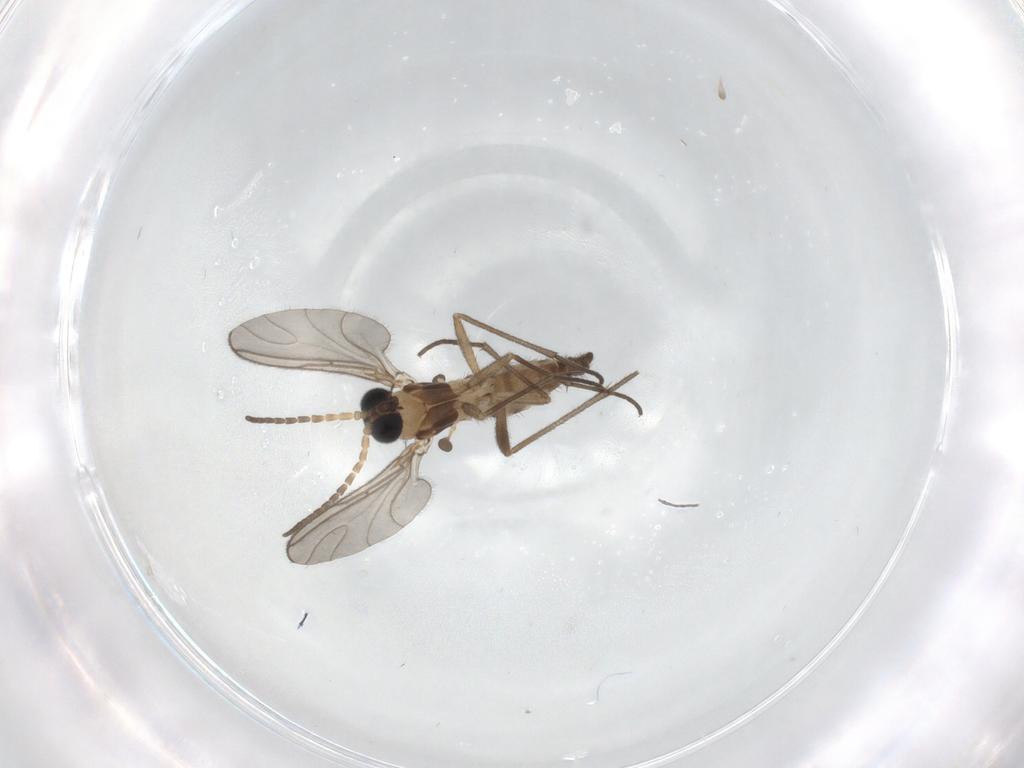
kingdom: Animalia
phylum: Arthropoda
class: Insecta
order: Diptera
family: Sciaridae
